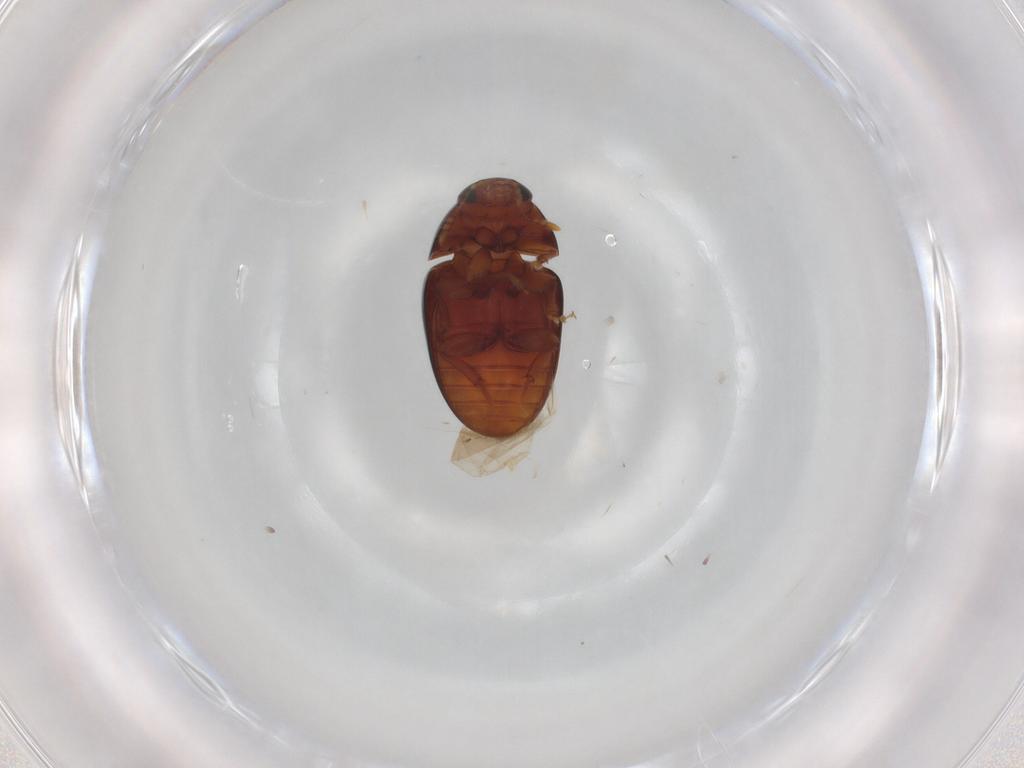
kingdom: Animalia
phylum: Arthropoda
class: Insecta
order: Coleoptera
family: Phalacridae
